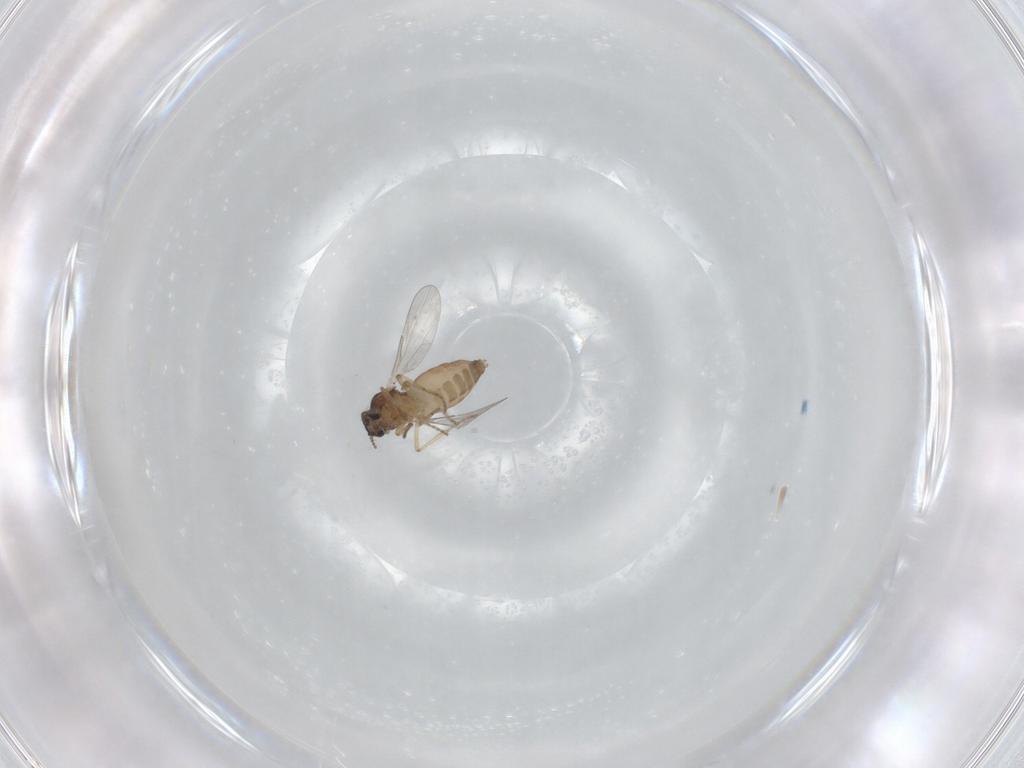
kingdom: Animalia
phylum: Arthropoda
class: Insecta
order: Diptera
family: Ceratopogonidae
